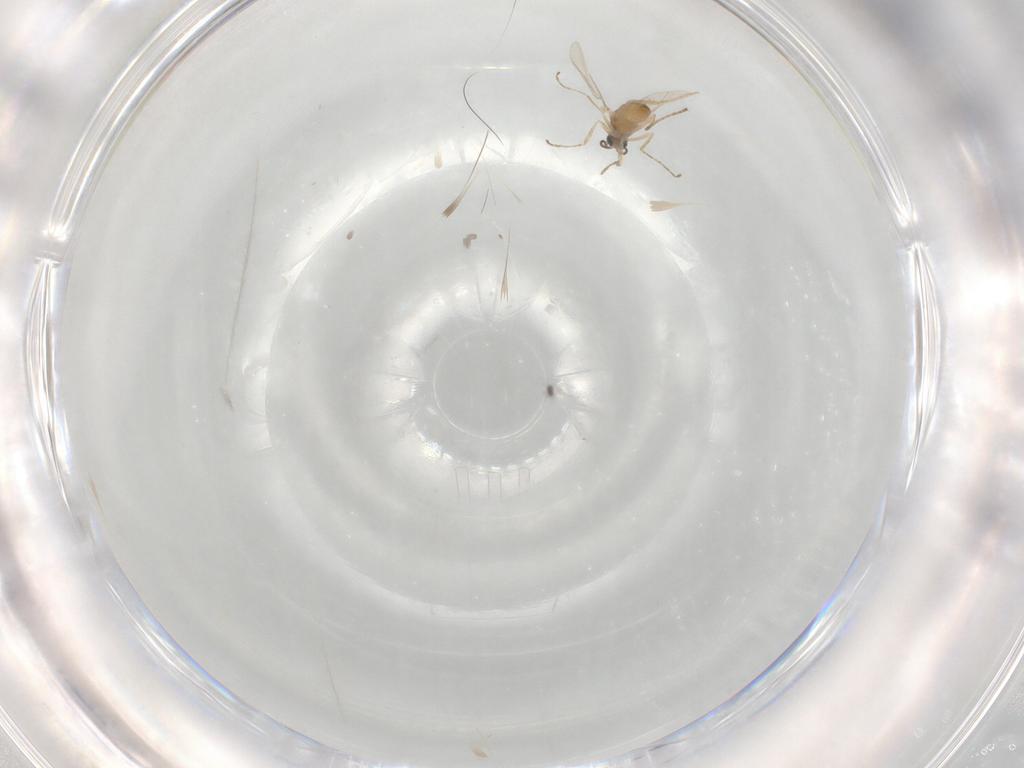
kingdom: Animalia
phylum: Arthropoda
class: Insecta
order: Diptera
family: Cecidomyiidae
